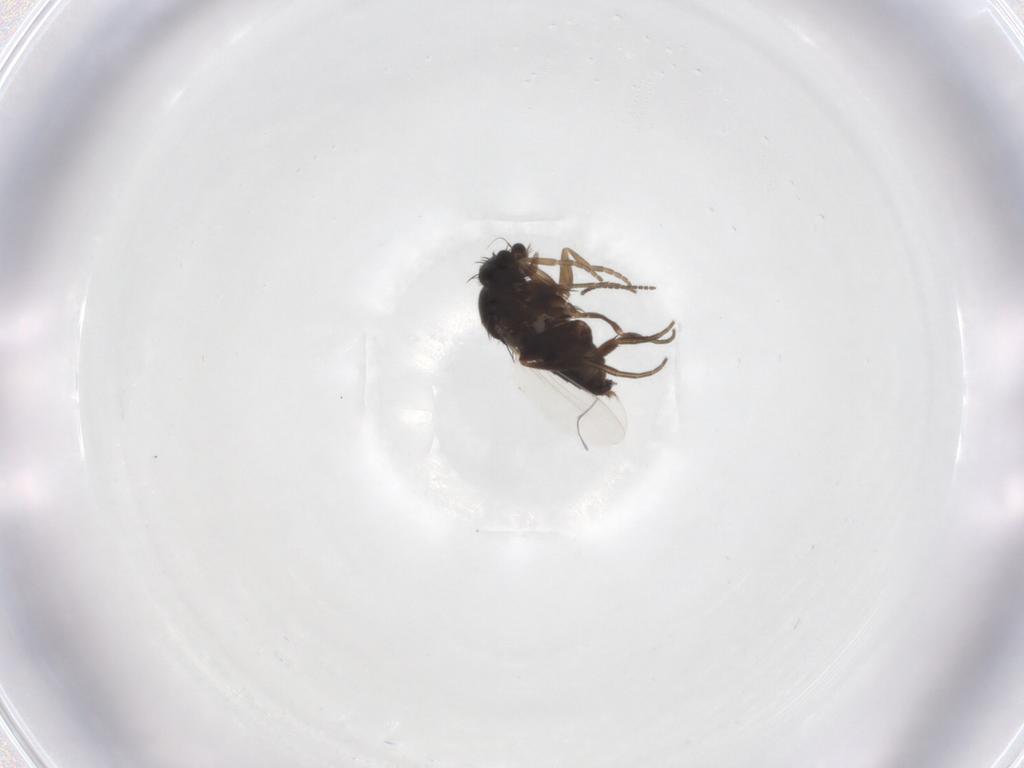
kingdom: Animalia
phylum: Arthropoda
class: Insecta
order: Diptera
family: Phoridae
